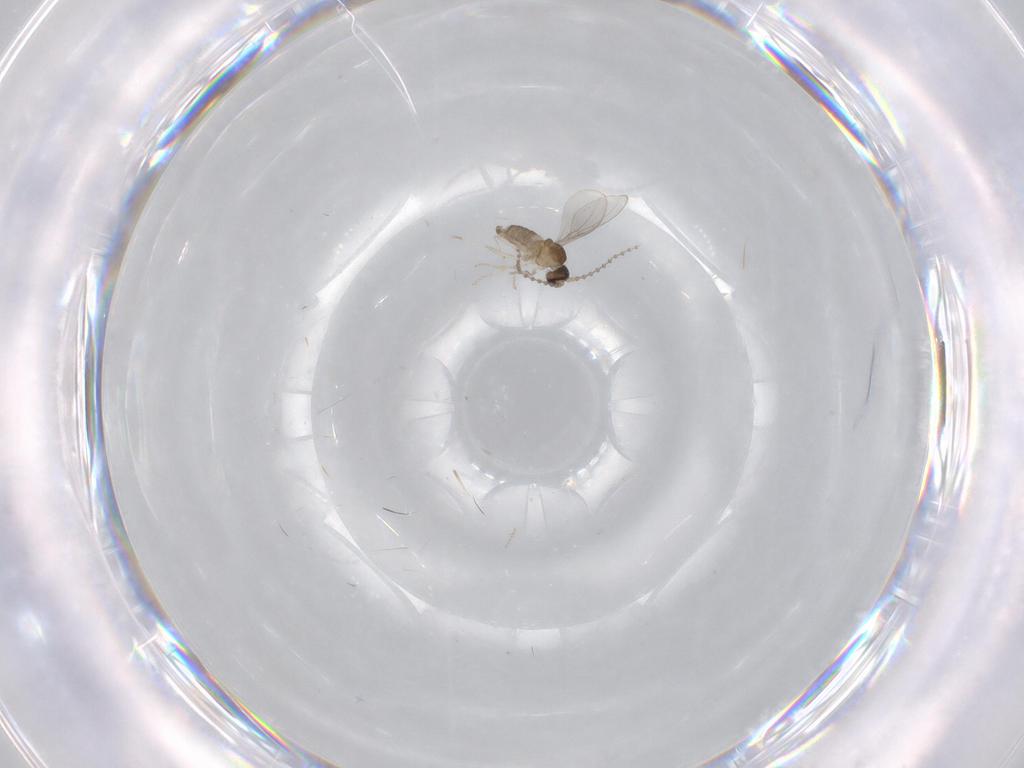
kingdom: Animalia
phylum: Arthropoda
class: Insecta
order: Diptera
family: Cecidomyiidae
